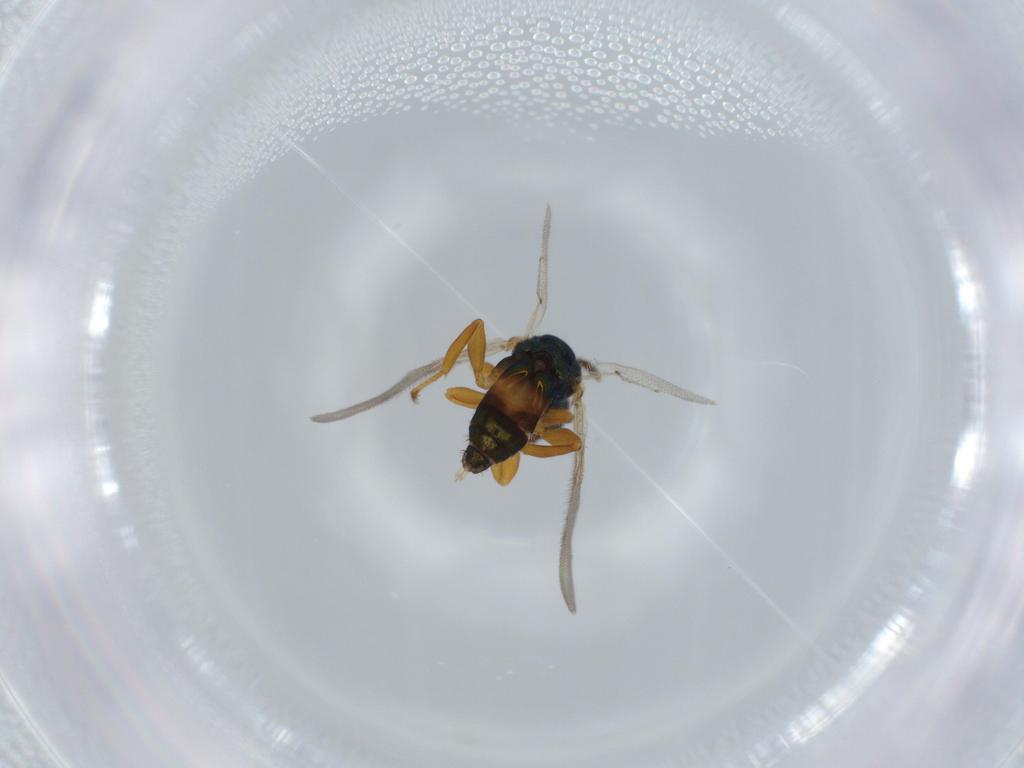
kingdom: Animalia
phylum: Arthropoda
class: Insecta
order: Hymenoptera
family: Pteromalidae
